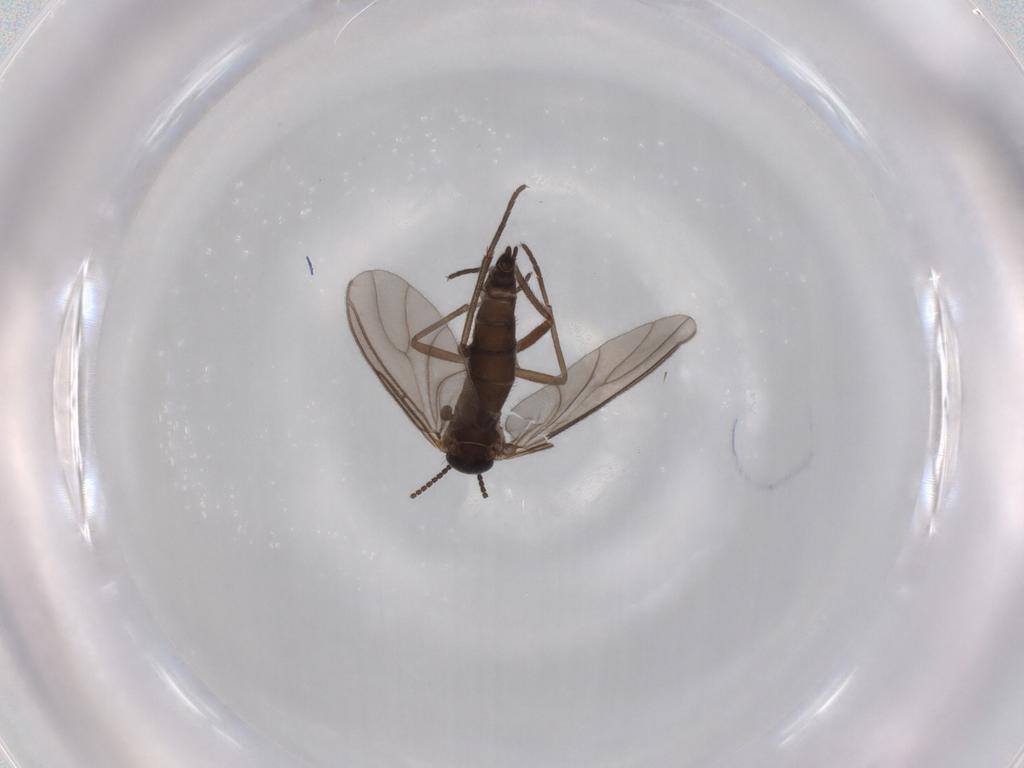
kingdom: Animalia
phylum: Arthropoda
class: Insecta
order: Diptera
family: Sciaridae
